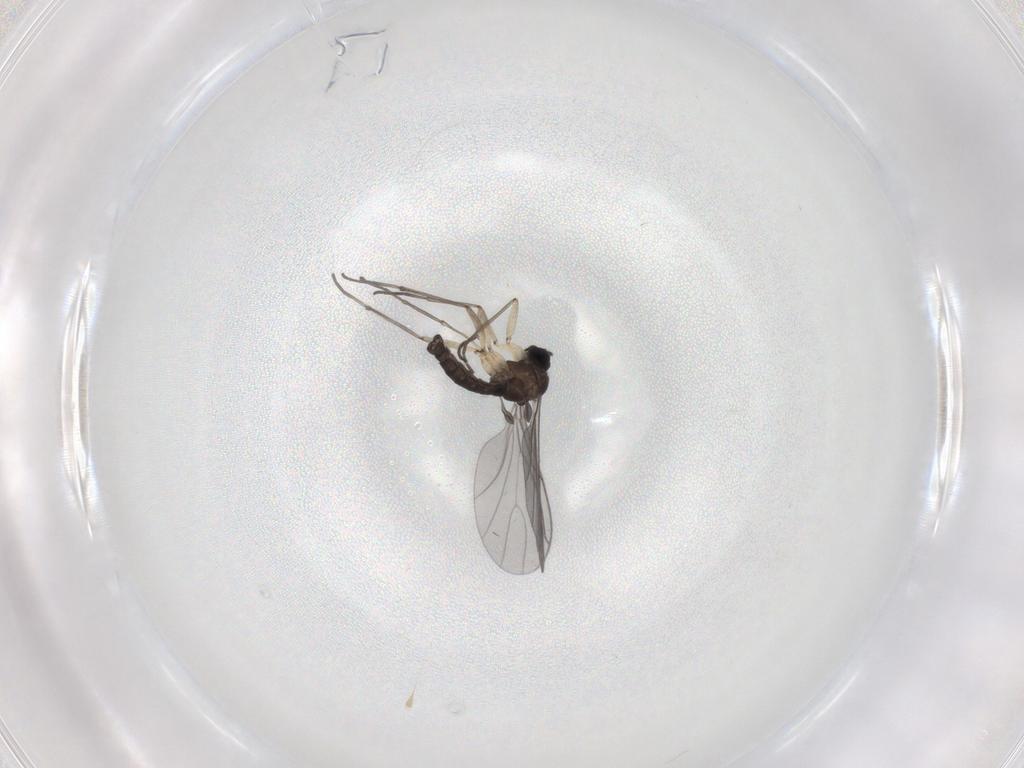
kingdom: Animalia
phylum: Arthropoda
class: Insecta
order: Diptera
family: Sciaridae
